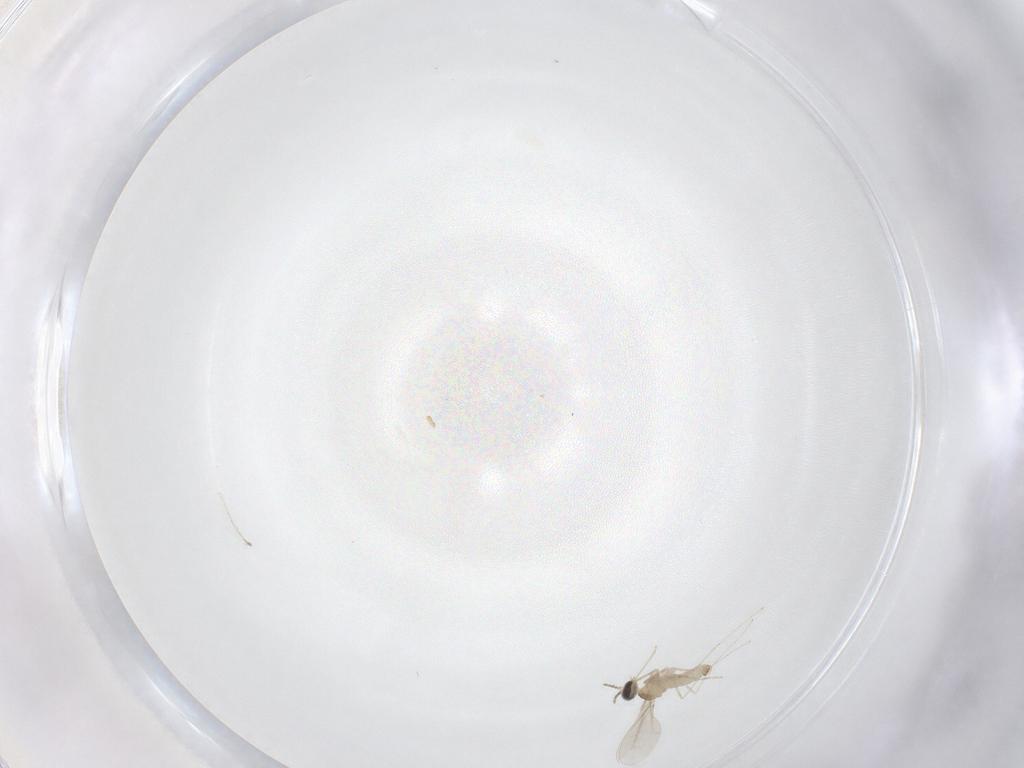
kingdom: Animalia
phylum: Arthropoda
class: Insecta
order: Diptera
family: Cecidomyiidae
